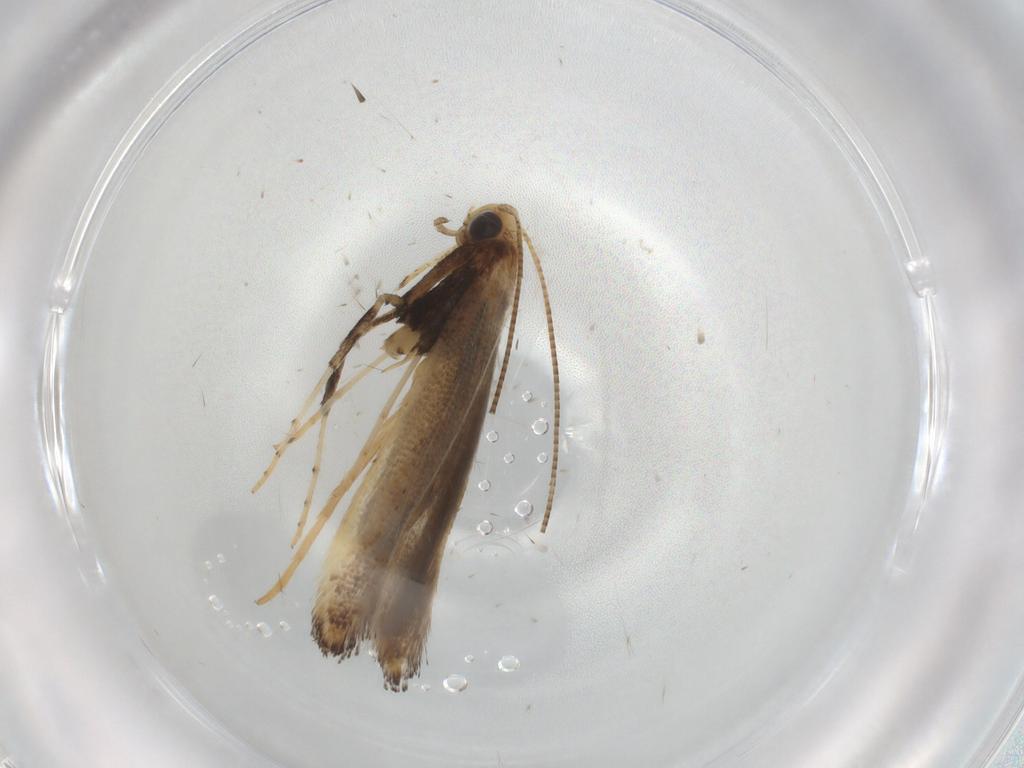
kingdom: Animalia
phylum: Arthropoda
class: Insecta
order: Lepidoptera
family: Gracillariidae
